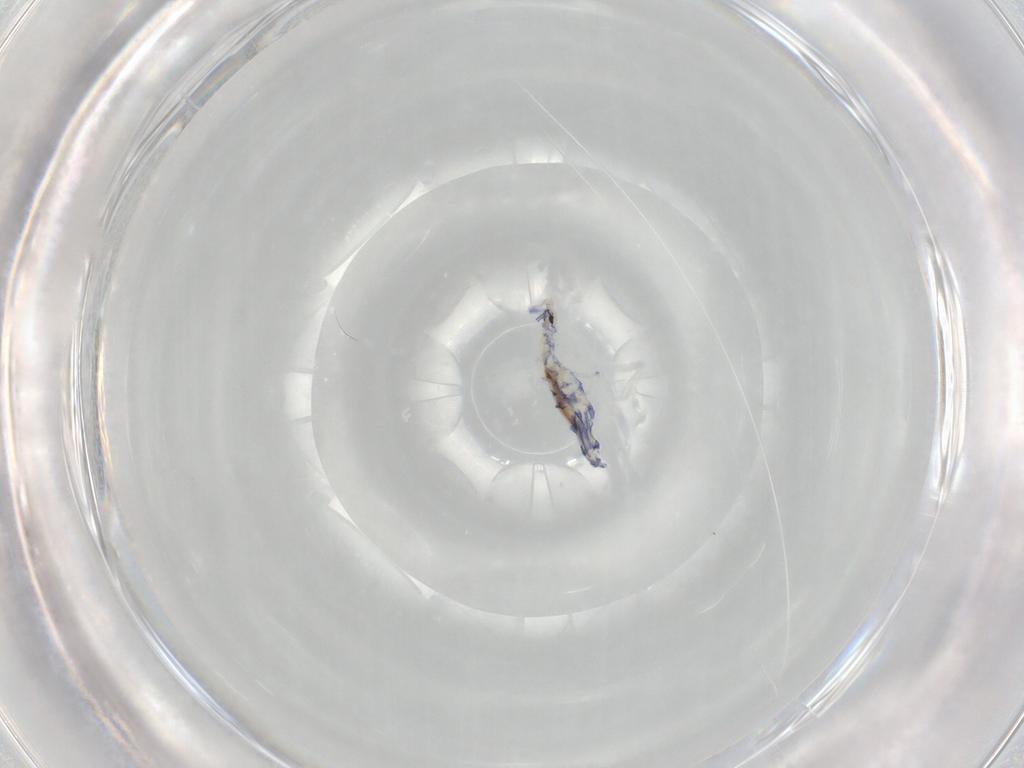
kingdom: Animalia
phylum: Arthropoda
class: Collembola
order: Entomobryomorpha
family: Entomobryidae
